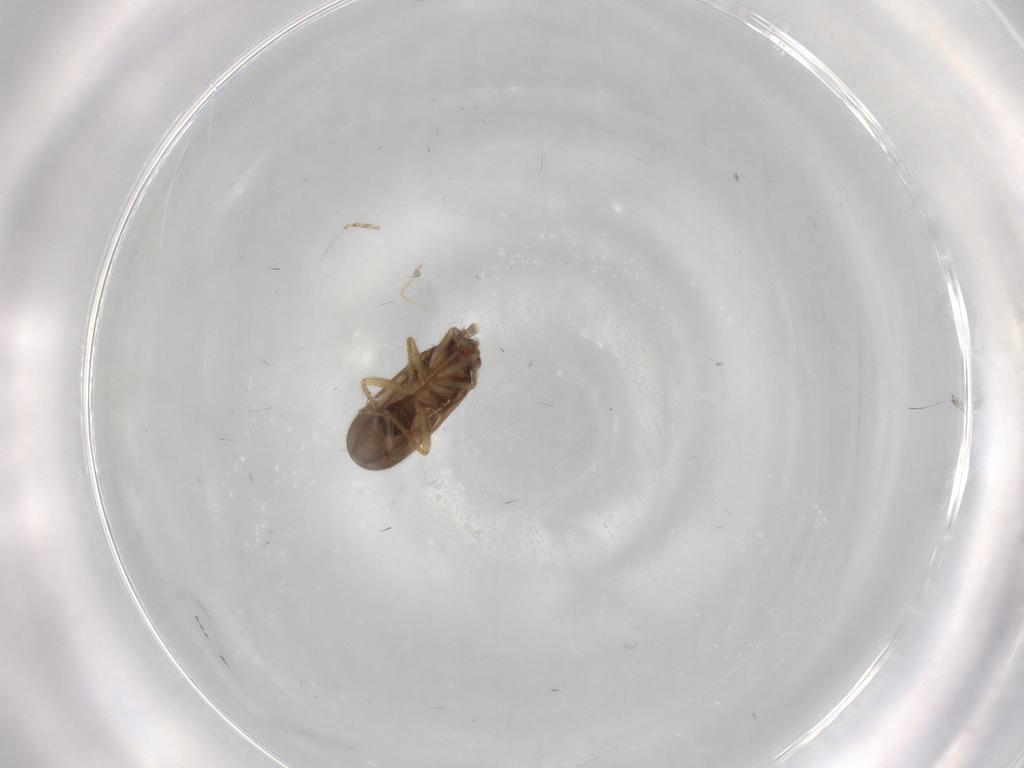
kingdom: Animalia
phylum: Arthropoda
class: Insecta
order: Hemiptera
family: Ceratocombidae
